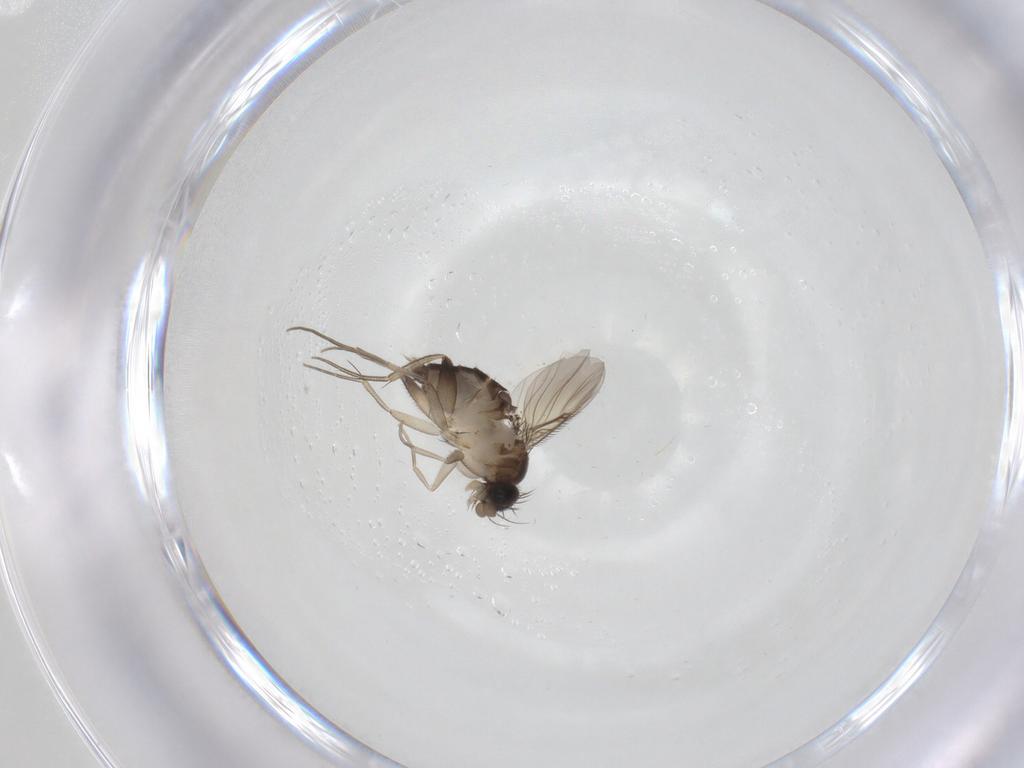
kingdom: Animalia
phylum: Arthropoda
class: Insecta
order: Diptera
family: Phoridae
